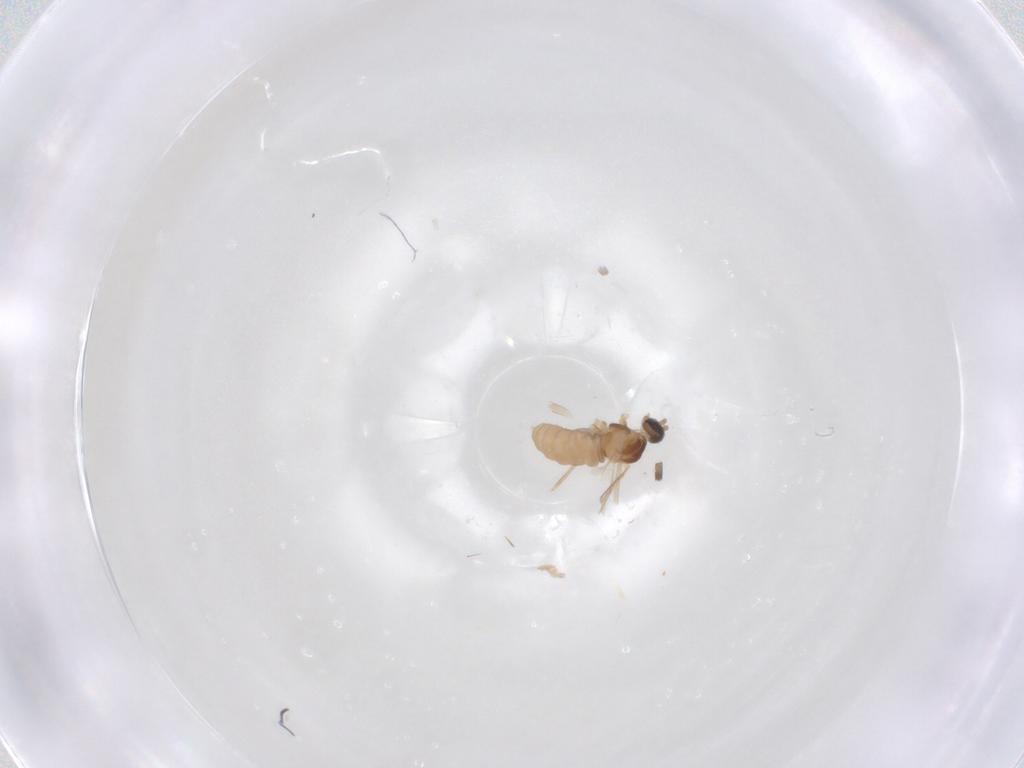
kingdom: Animalia
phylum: Arthropoda
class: Insecta
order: Diptera
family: Cecidomyiidae
